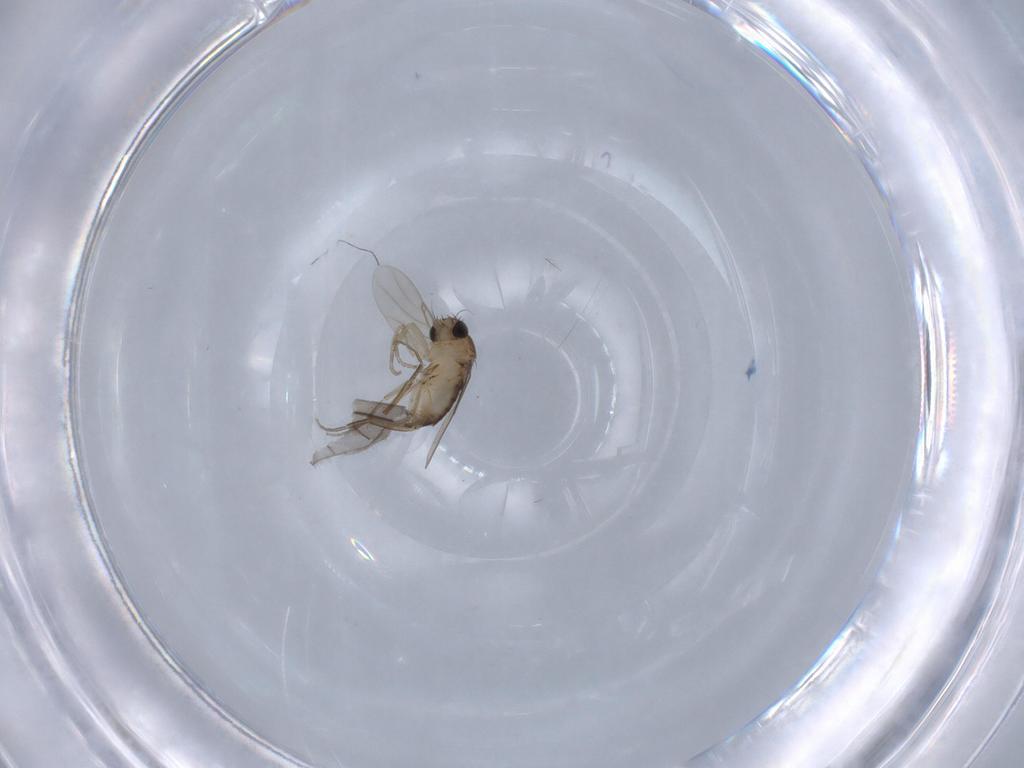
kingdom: Animalia
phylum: Arthropoda
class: Insecta
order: Diptera
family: Phoridae
